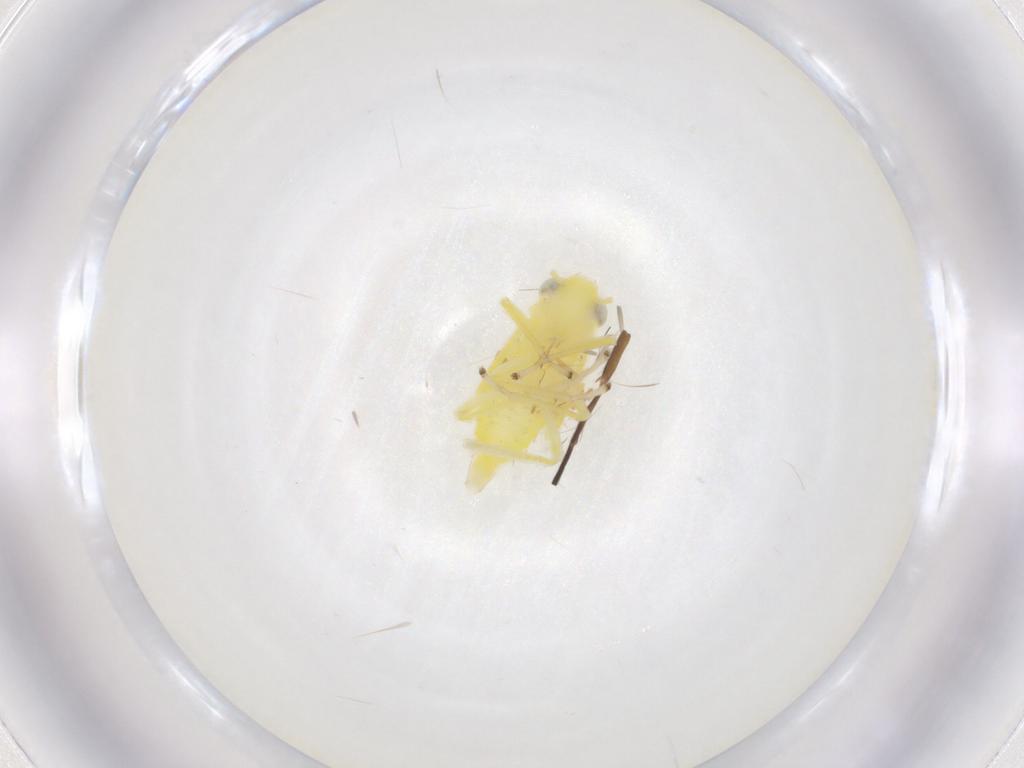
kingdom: Animalia
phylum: Arthropoda
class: Insecta
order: Hemiptera
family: Cicadellidae
